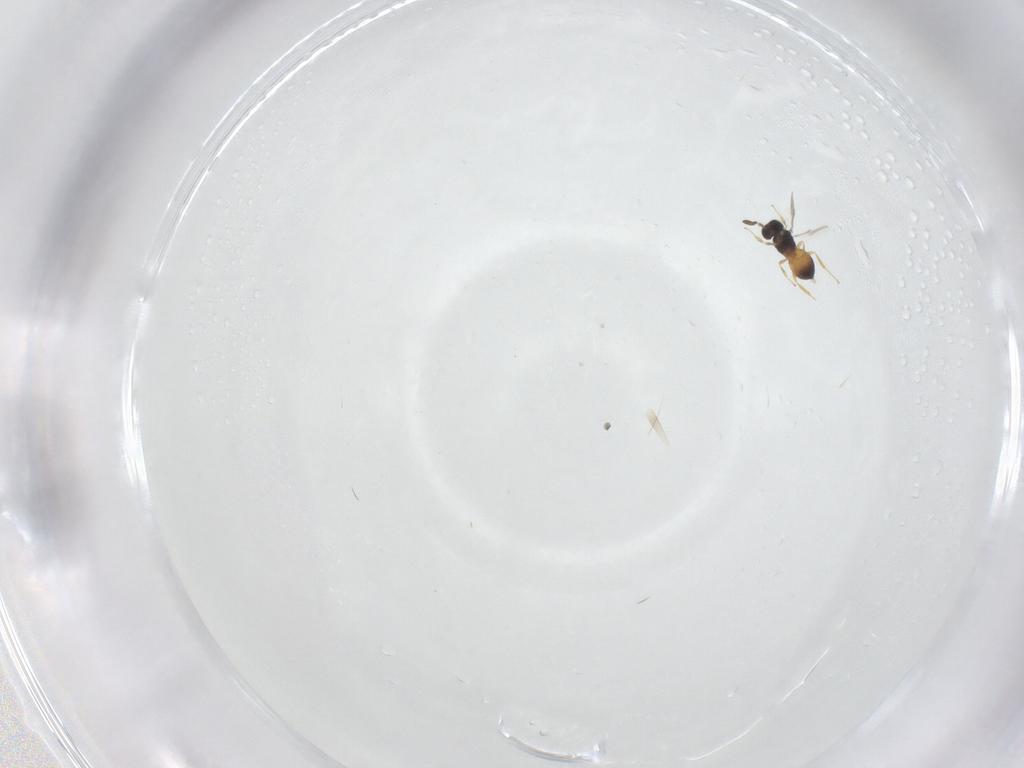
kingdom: Animalia
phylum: Arthropoda
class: Insecta
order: Hymenoptera
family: Scelionidae
